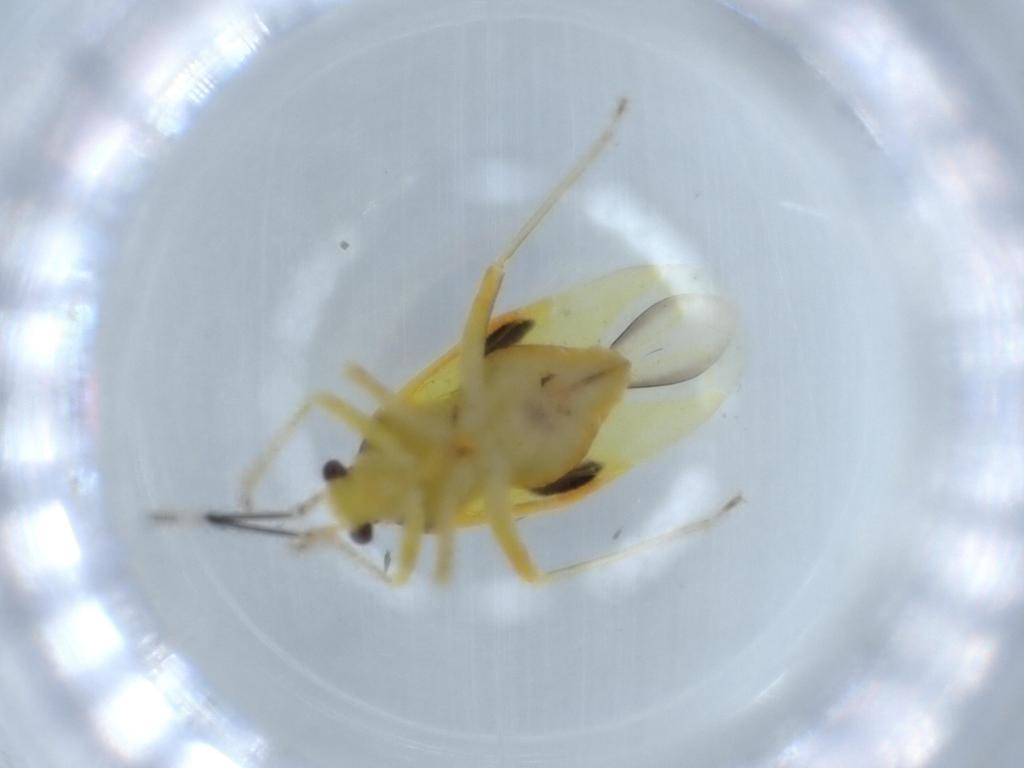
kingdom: Animalia
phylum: Arthropoda
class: Insecta
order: Hemiptera
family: Miridae
